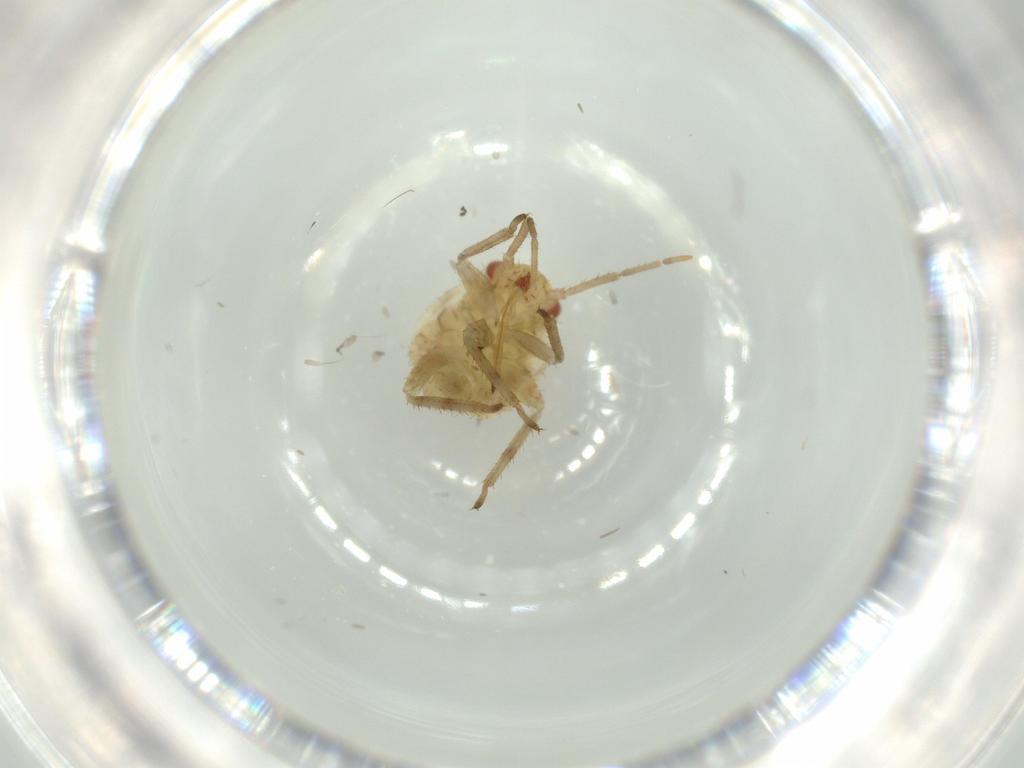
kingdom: Animalia
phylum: Arthropoda
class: Insecta
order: Hemiptera
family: Miridae
